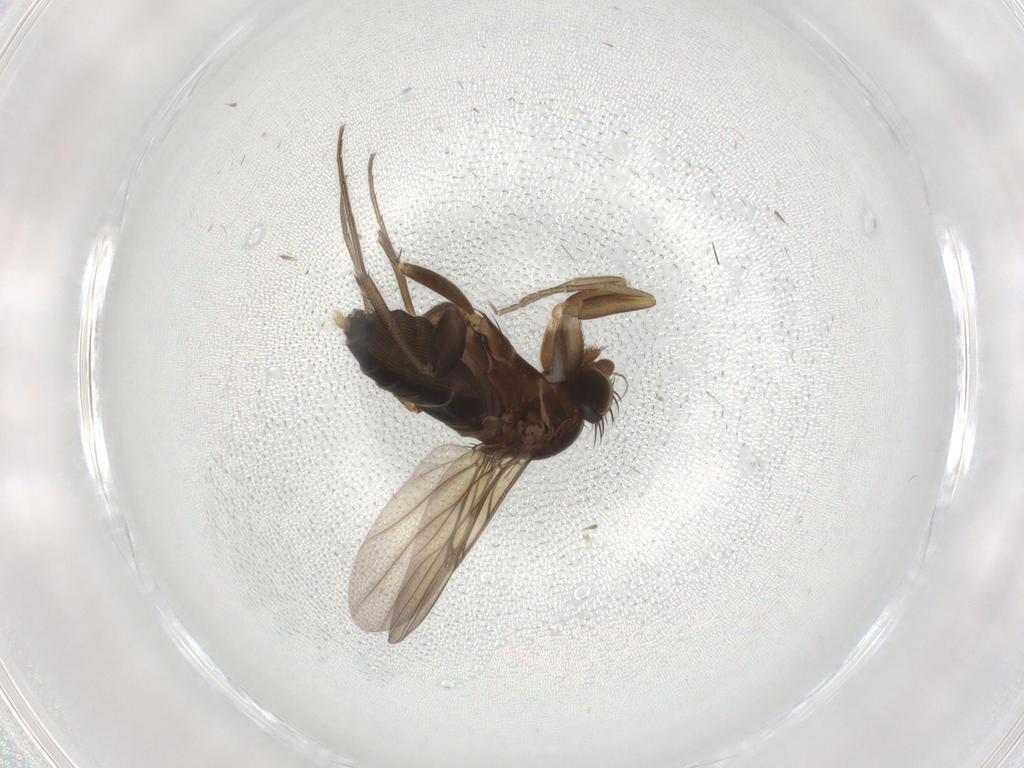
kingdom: Animalia
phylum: Arthropoda
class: Insecta
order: Diptera
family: Phoridae
